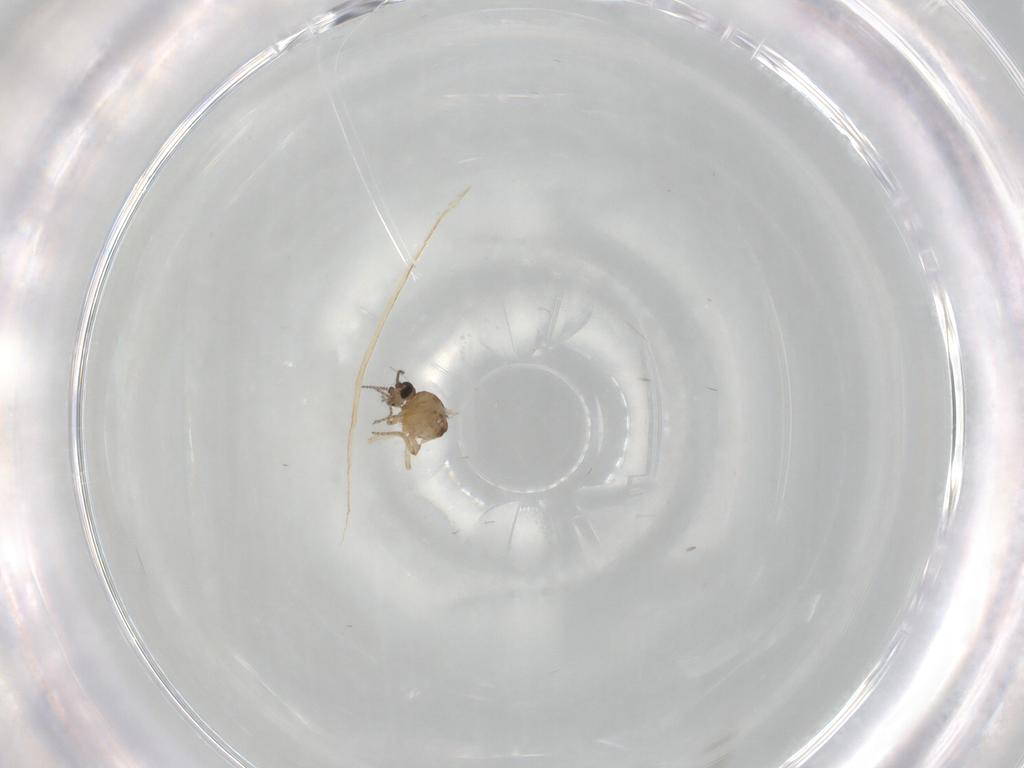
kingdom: Animalia
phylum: Arthropoda
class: Insecta
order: Diptera
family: Ceratopogonidae
